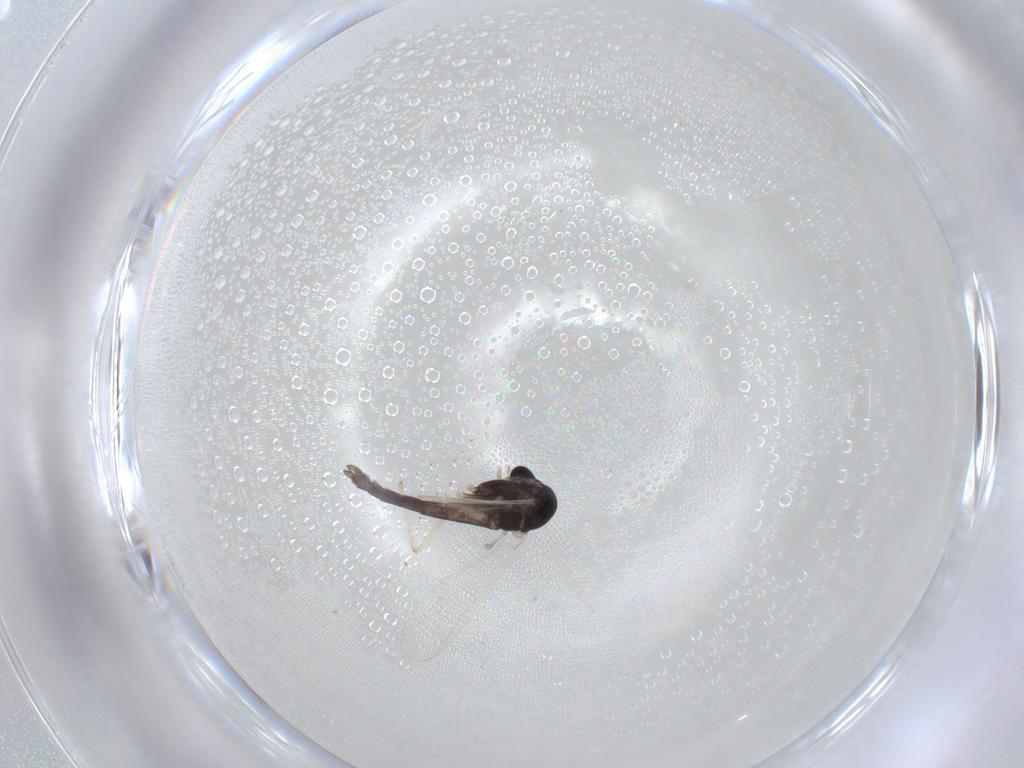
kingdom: Animalia
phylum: Arthropoda
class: Insecta
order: Diptera
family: Chironomidae
